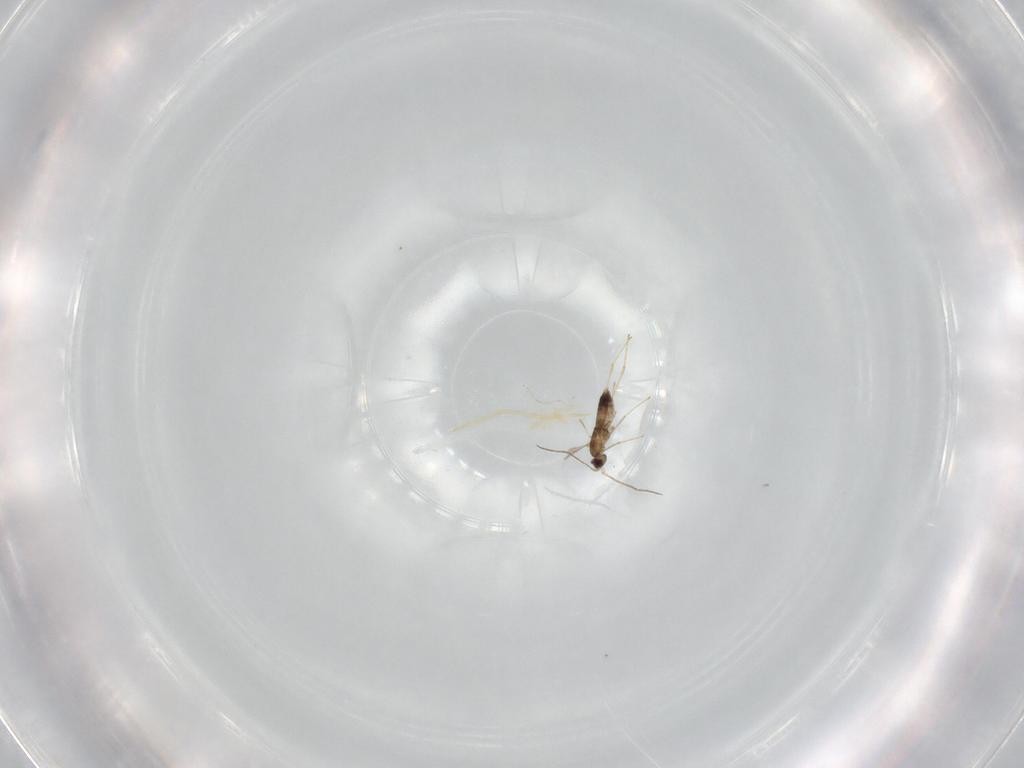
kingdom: Animalia
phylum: Arthropoda
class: Insecta
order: Hymenoptera
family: Mymaridae
